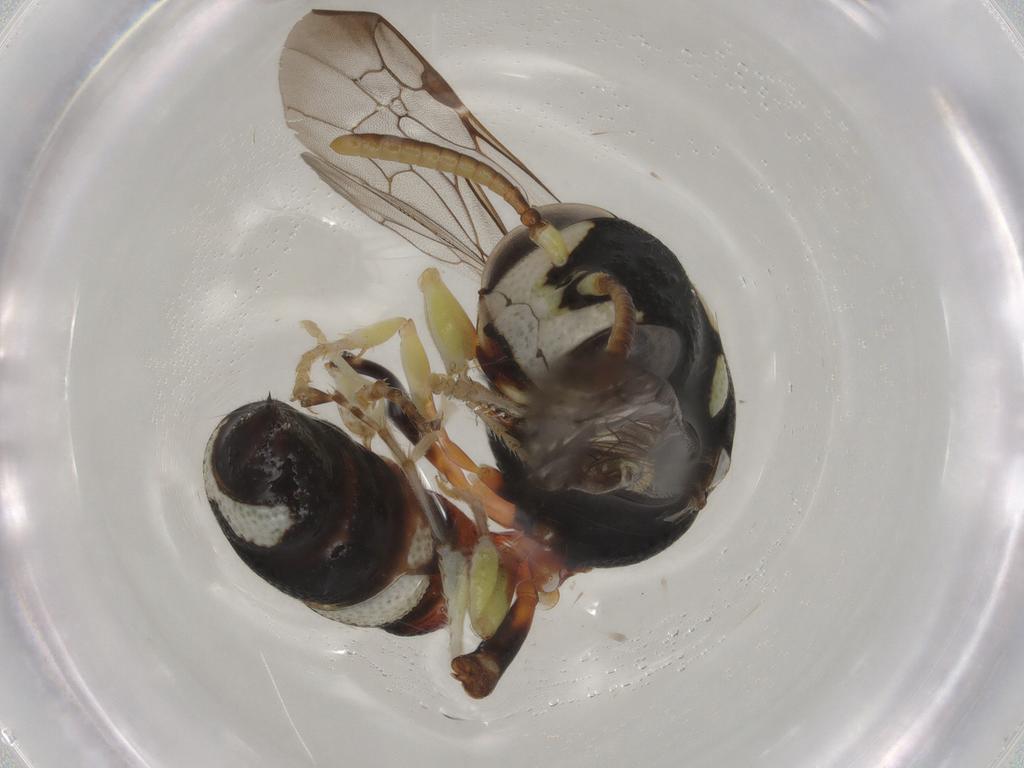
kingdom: Animalia
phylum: Arthropoda
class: Insecta
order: Hymenoptera
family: Crabronidae
